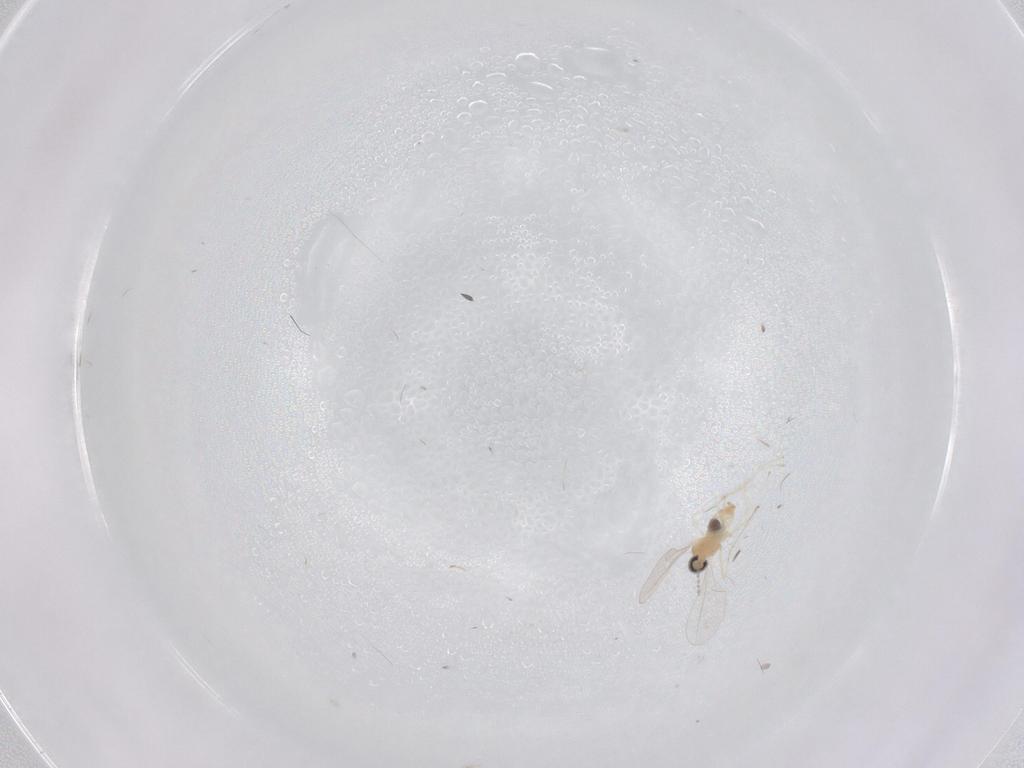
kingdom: Animalia
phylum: Arthropoda
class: Insecta
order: Diptera
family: Cecidomyiidae
